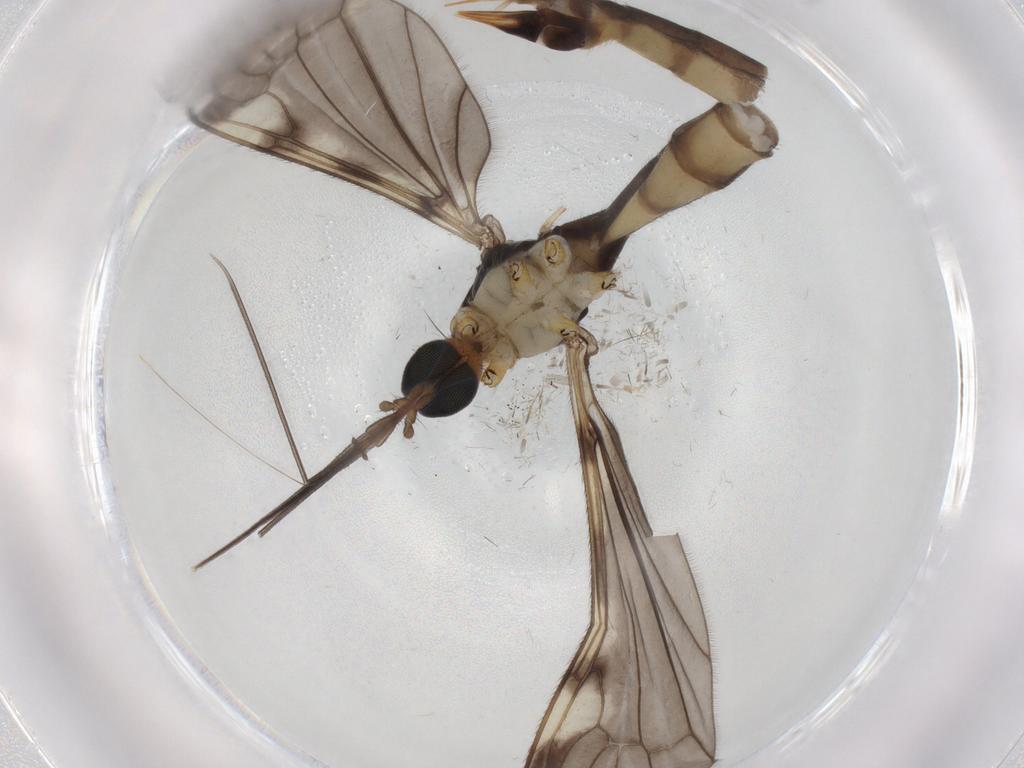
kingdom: Animalia
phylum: Arthropoda
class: Insecta
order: Diptera
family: Phoridae
